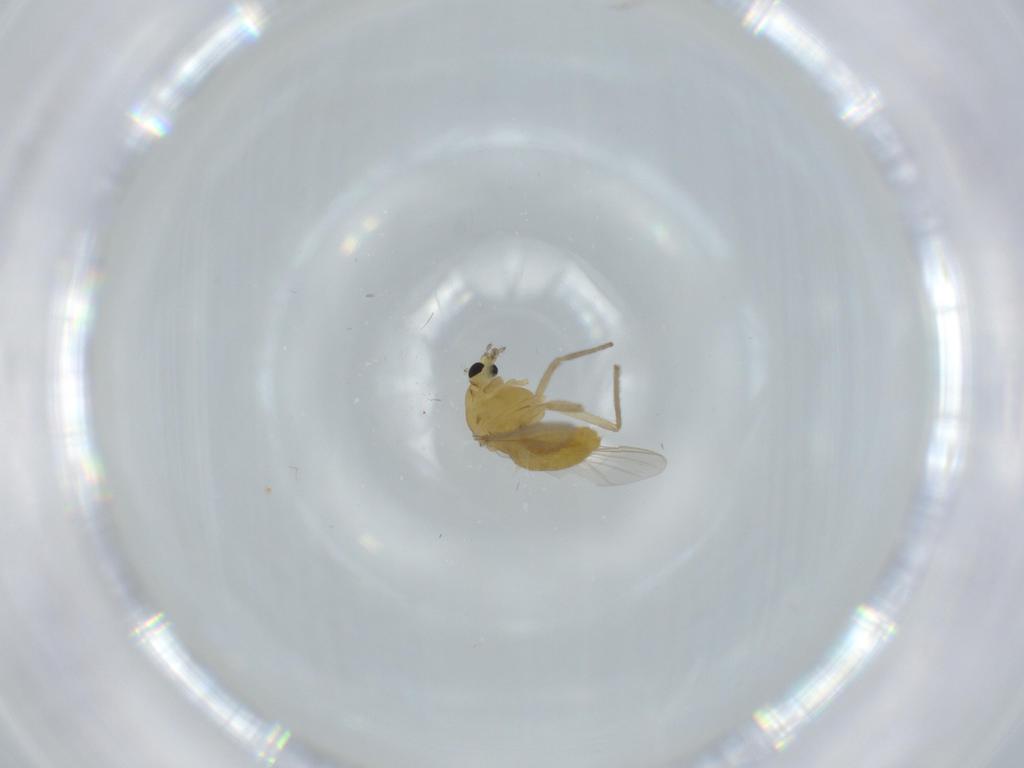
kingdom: Animalia
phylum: Arthropoda
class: Insecta
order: Diptera
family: Chironomidae
